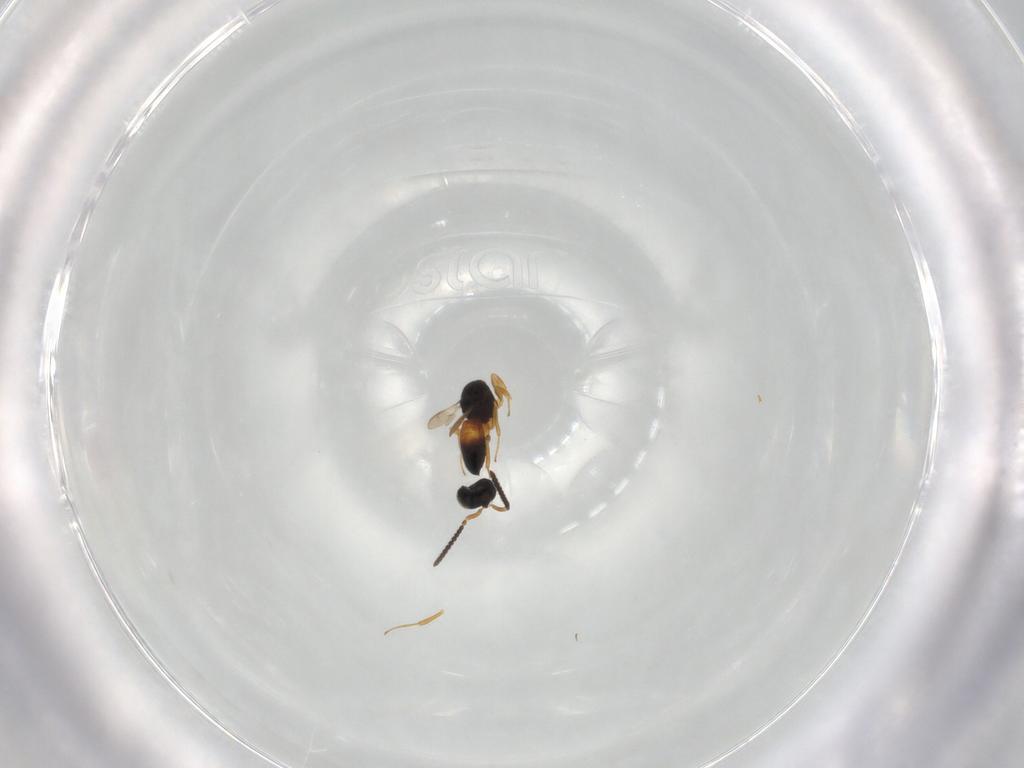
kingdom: Animalia
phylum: Arthropoda
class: Insecta
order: Hymenoptera
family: Scelionidae
